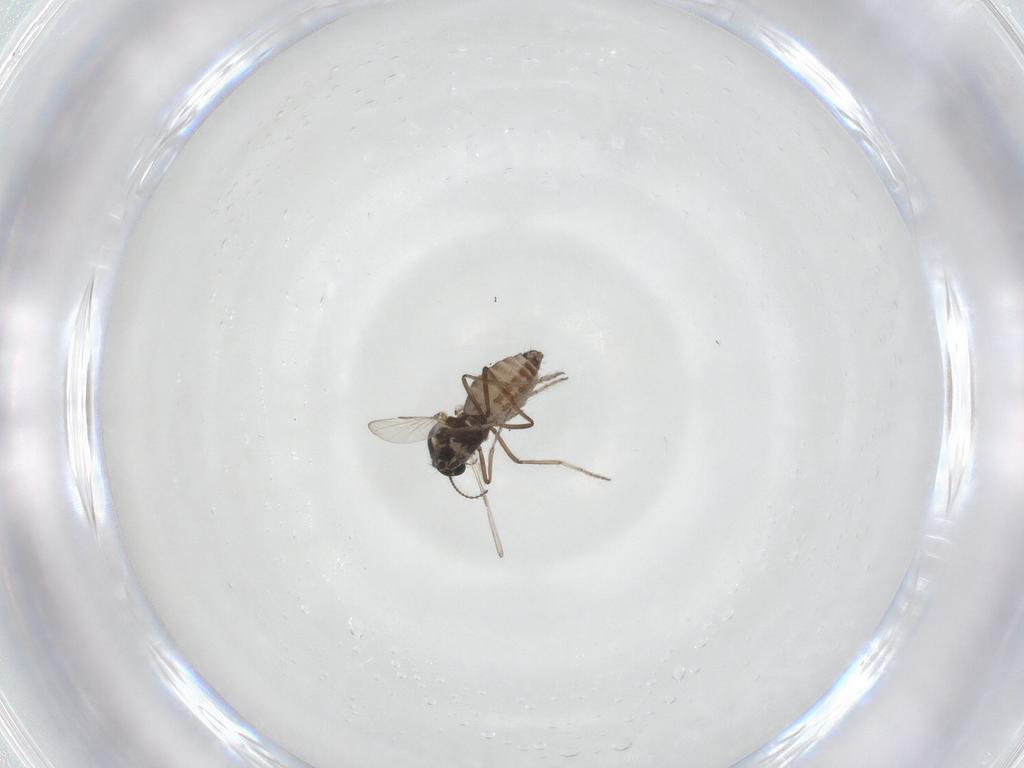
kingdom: Animalia
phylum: Arthropoda
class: Insecta
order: Diptera
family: Ceratopogonidae
